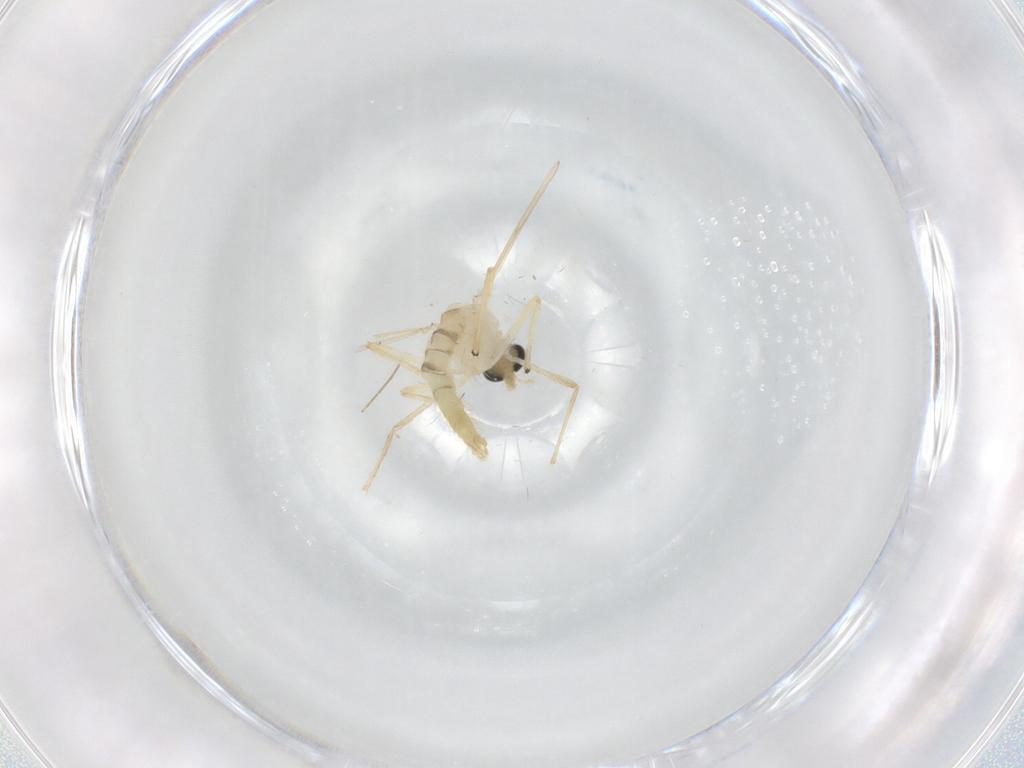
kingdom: Animalia
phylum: Arthropoda
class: Insecta
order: Diptera
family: Chironomidae
